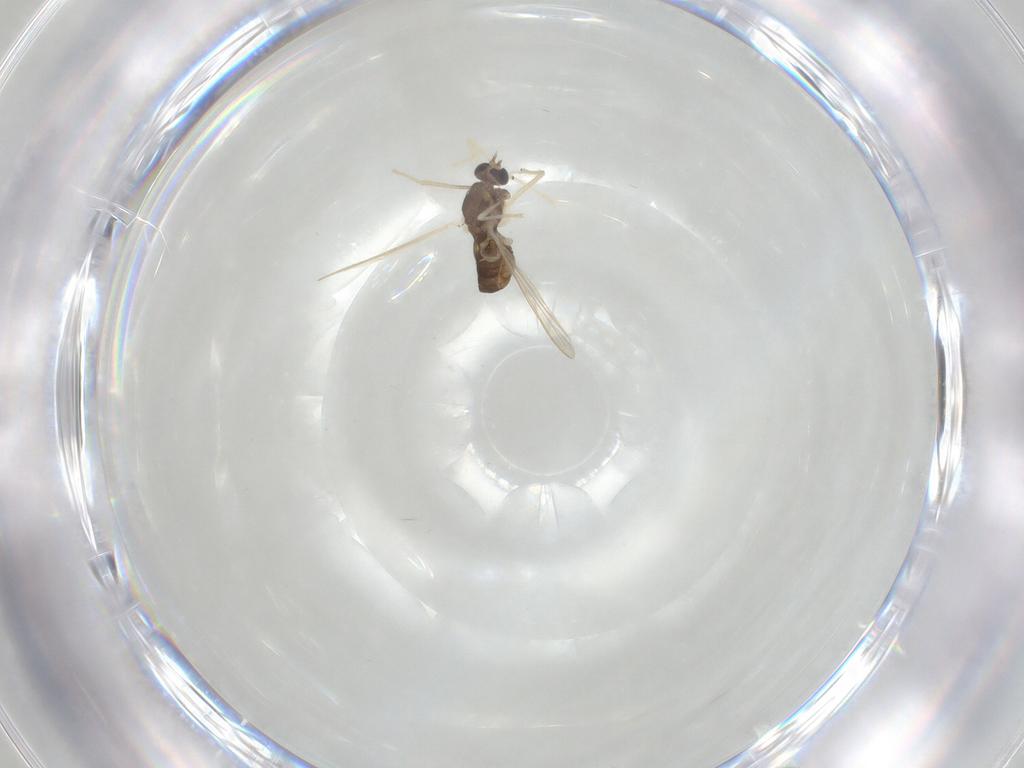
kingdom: Animalia
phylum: Arthropoda
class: Insecta
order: Diptera
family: Chironomidae
